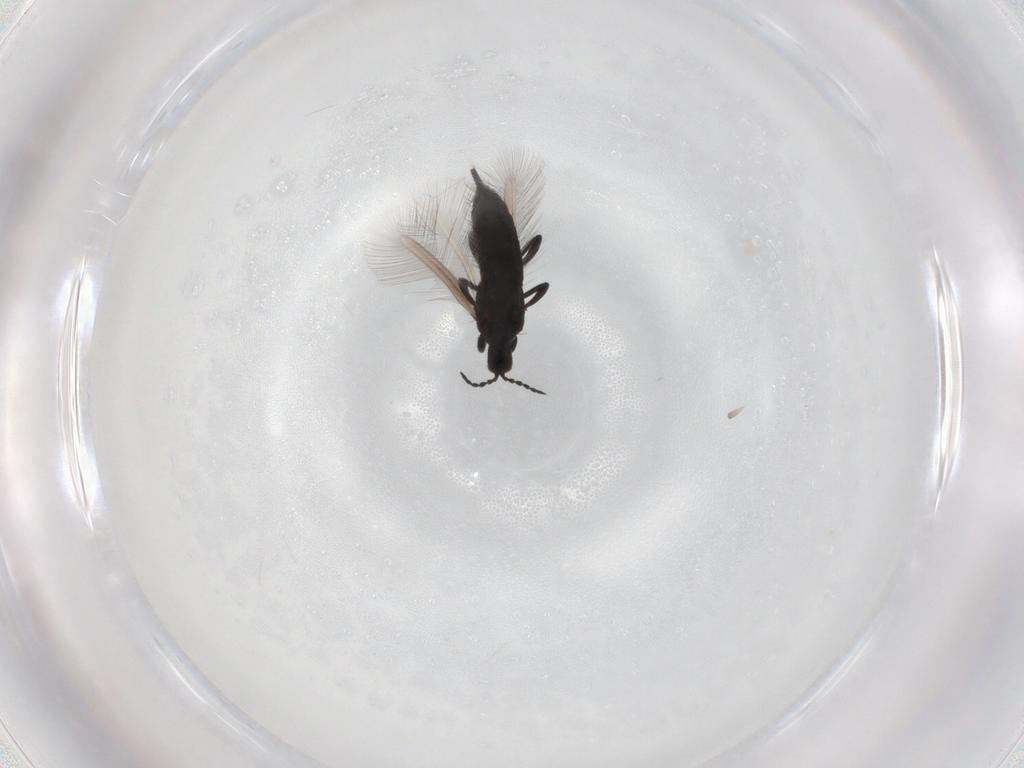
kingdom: Animalia
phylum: Arthropoda
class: Insecta
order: Thysanoptera
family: Phlaeothripidae
